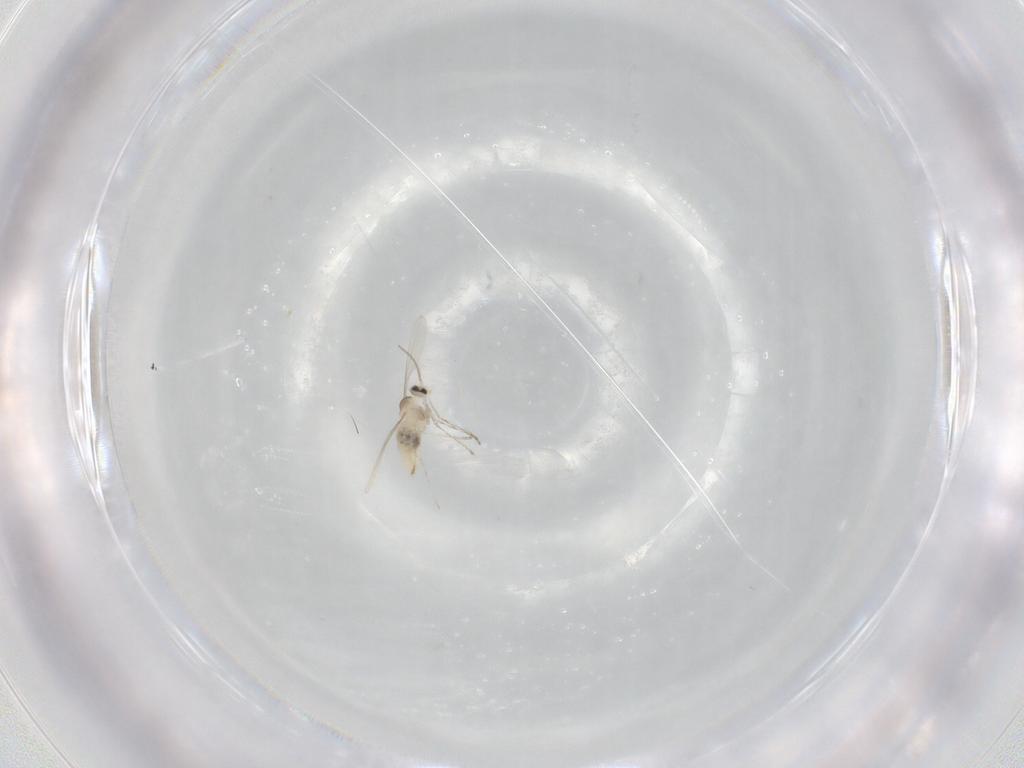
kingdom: Animalia
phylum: Arthropoda
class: Insecta
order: Diptera
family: Cecidomyiidae
